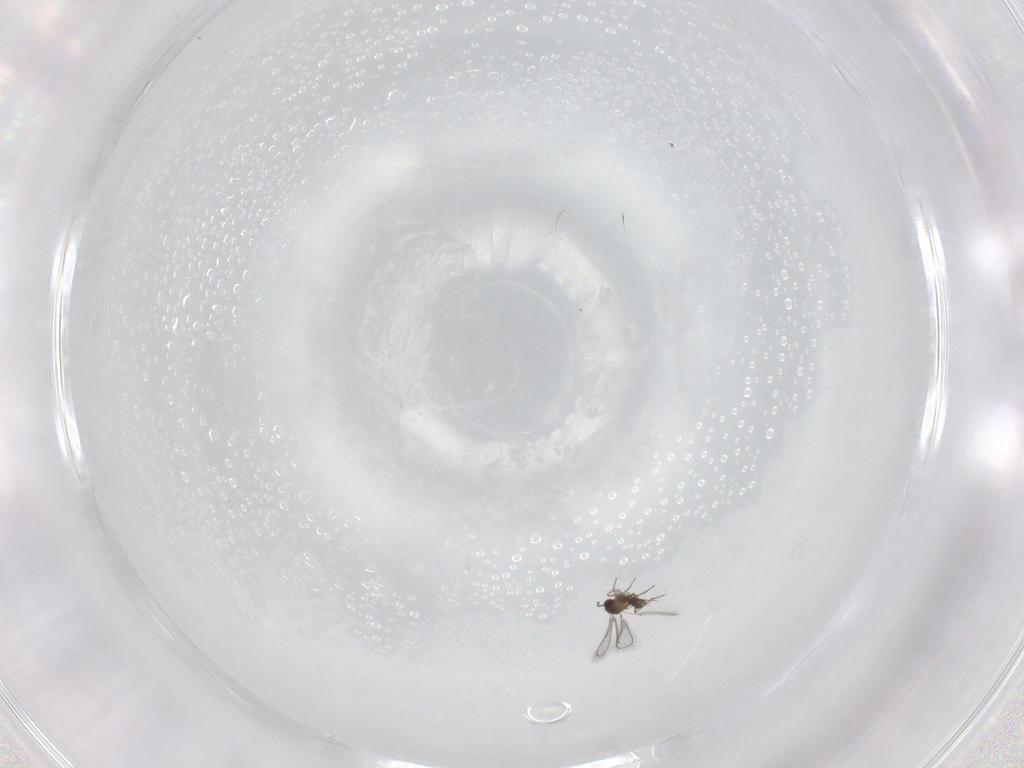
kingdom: Animalia
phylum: Arthropoda
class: Insecta
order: Hymenoptera
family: Mymaridae
